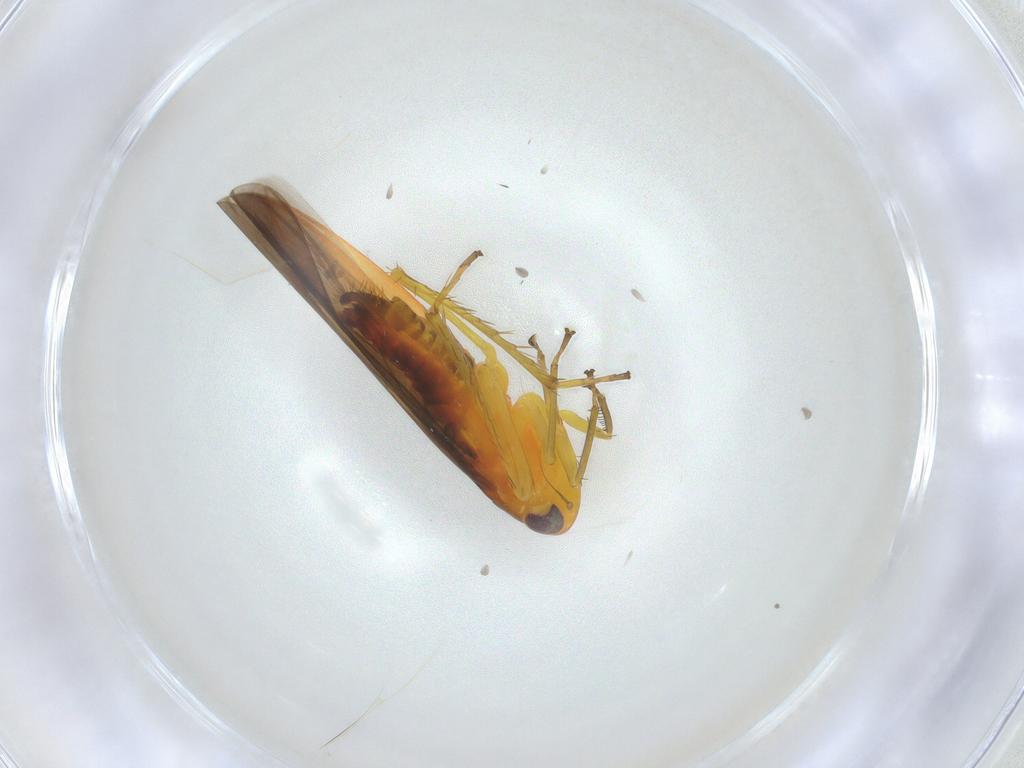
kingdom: Animalia
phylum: Arthropoda
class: Insecta
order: Hemiptera
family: Cicadellidae
